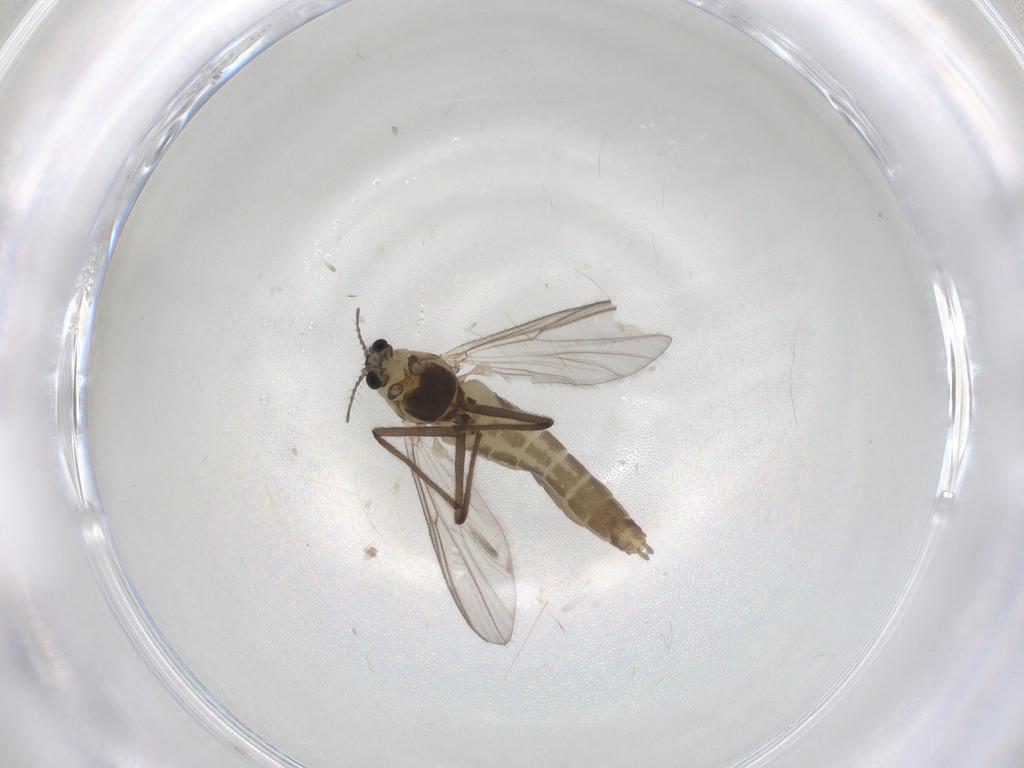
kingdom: Animalia
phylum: Arthropoda
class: Insecta
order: Diptera
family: Chironomidae
